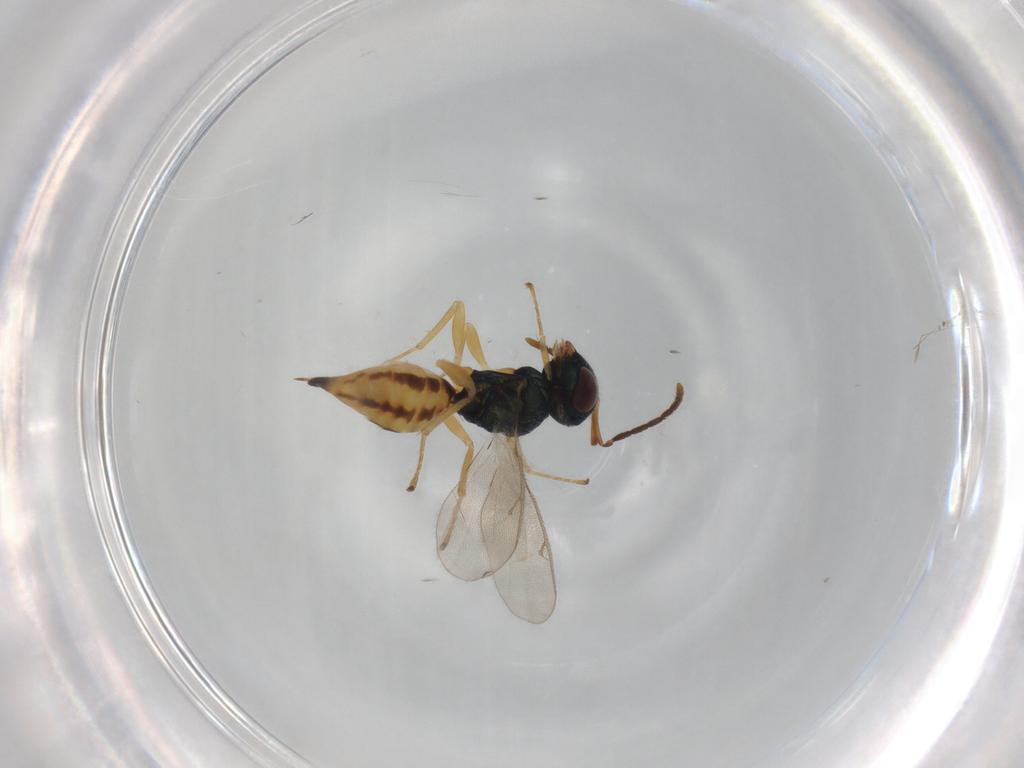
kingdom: Animalia
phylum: Arthropoda
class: Insecta
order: Hymenoptera
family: Pteromalidae
